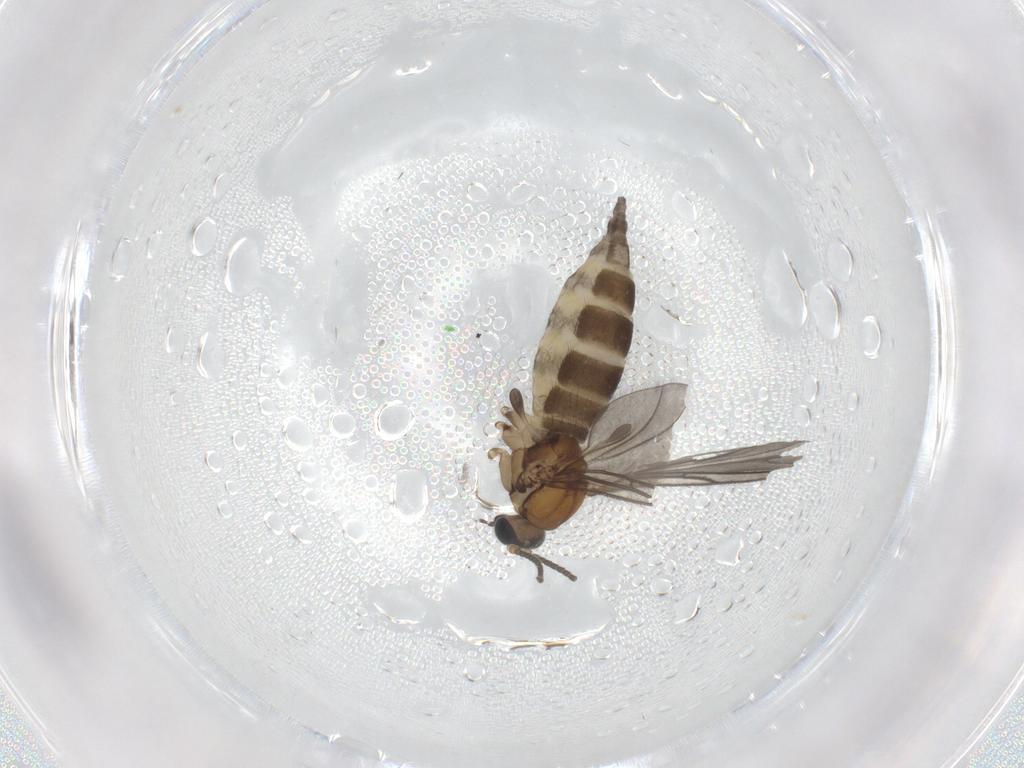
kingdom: Animalia
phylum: Arthropoda
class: Insecta
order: Diptera
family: Sciaridae
